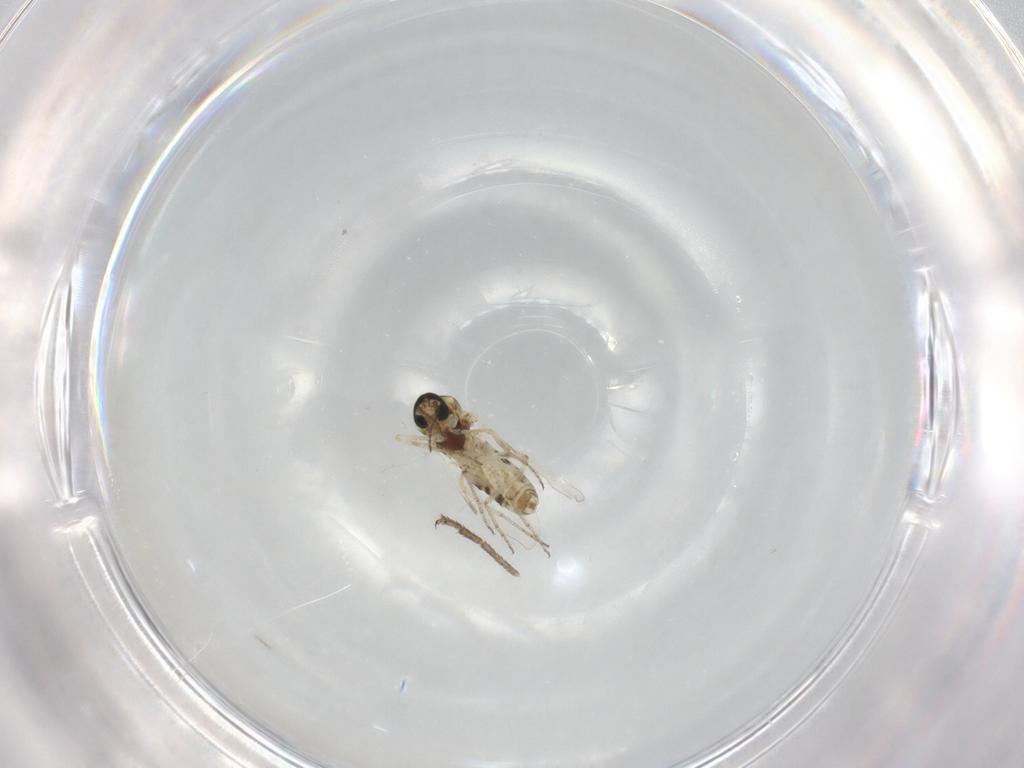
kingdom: Animalia
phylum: Arthropoda
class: Insecta
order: Diptera
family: Ceratopogonidae
